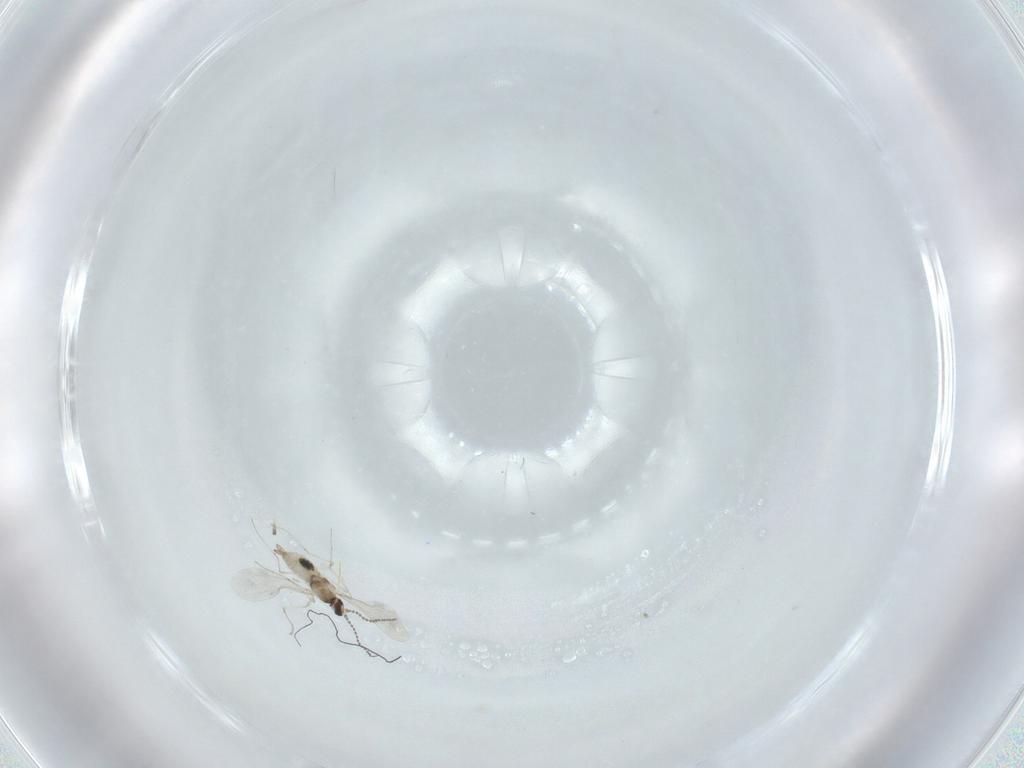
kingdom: Animalia
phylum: Arthropoda
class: Insecta
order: Diptera
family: Cecidomyiidae
